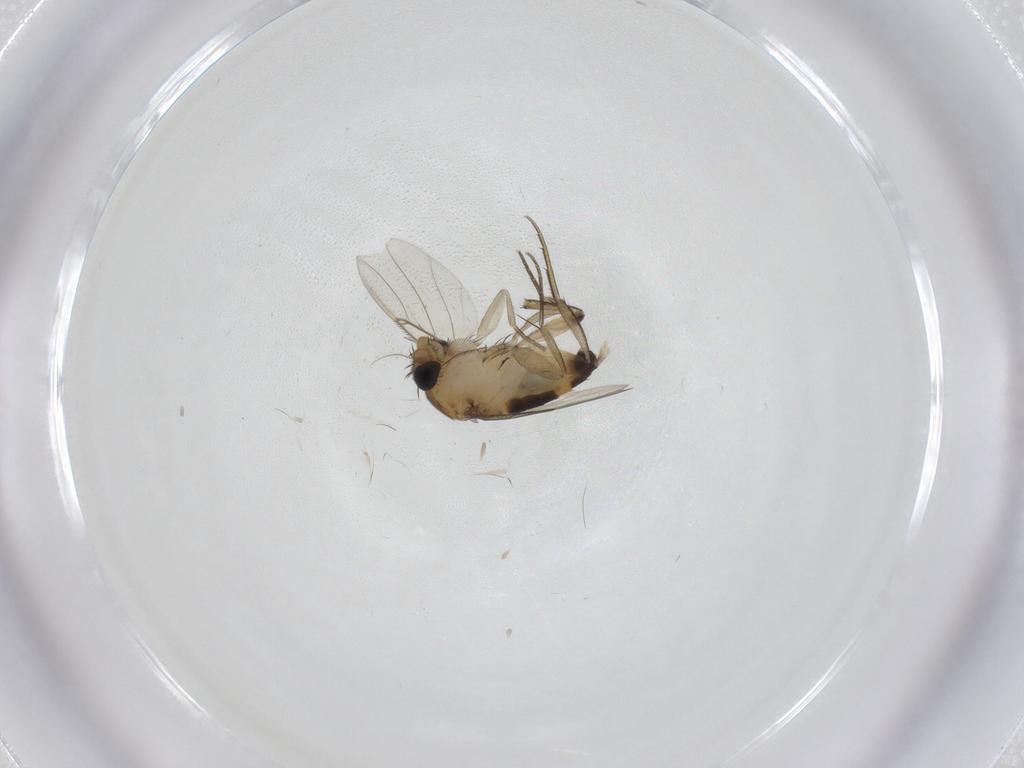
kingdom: Animalia
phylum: Arthropoda
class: Insecta
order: Diptera
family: Phoridae
